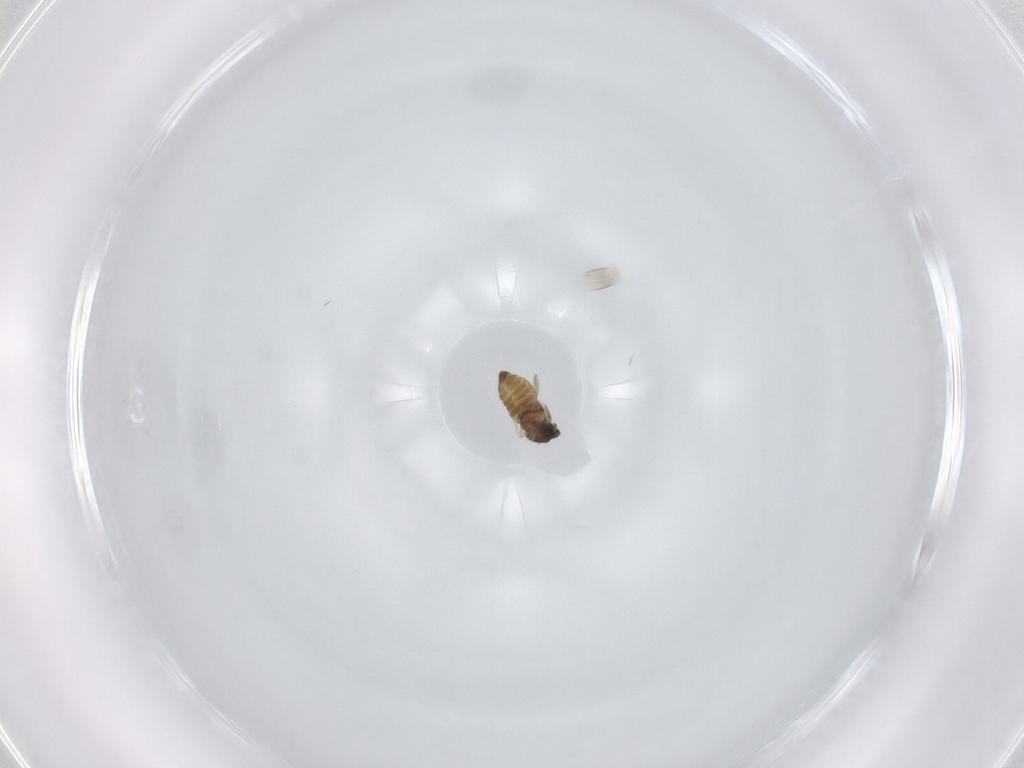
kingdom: Animalia
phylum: Arthropoda
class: Insecta
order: Diptera
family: Cecidomyiidae
